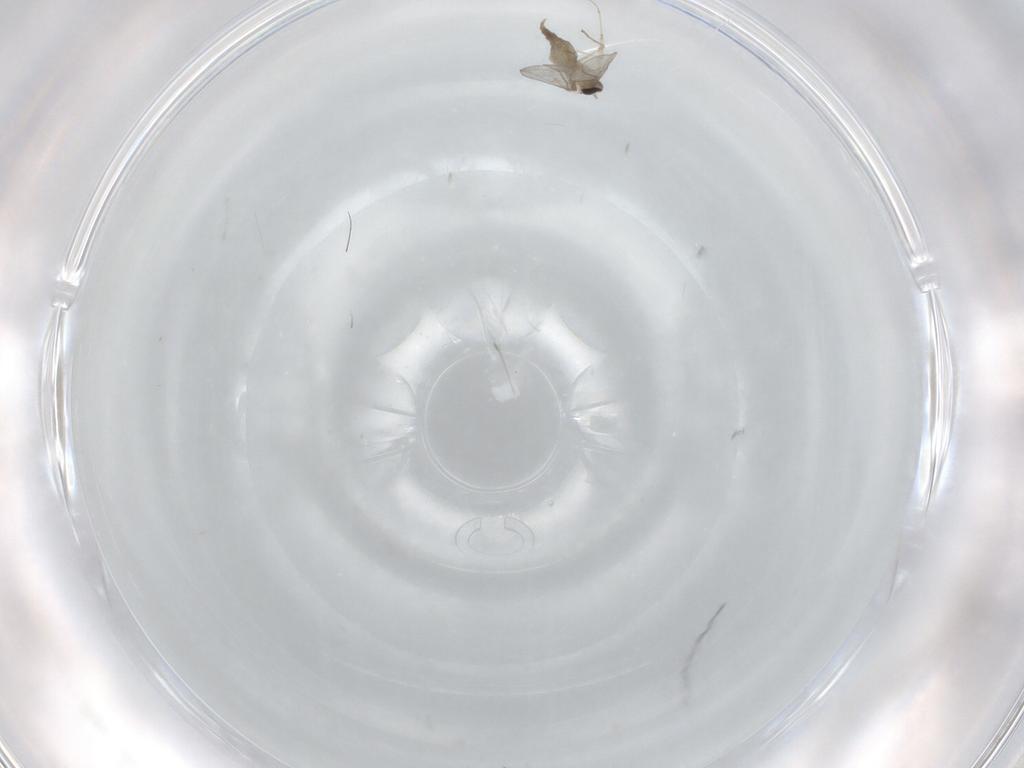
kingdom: Animalia
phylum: Arthropoda
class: Insecta
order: Diptera
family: Cecidomyiidae
